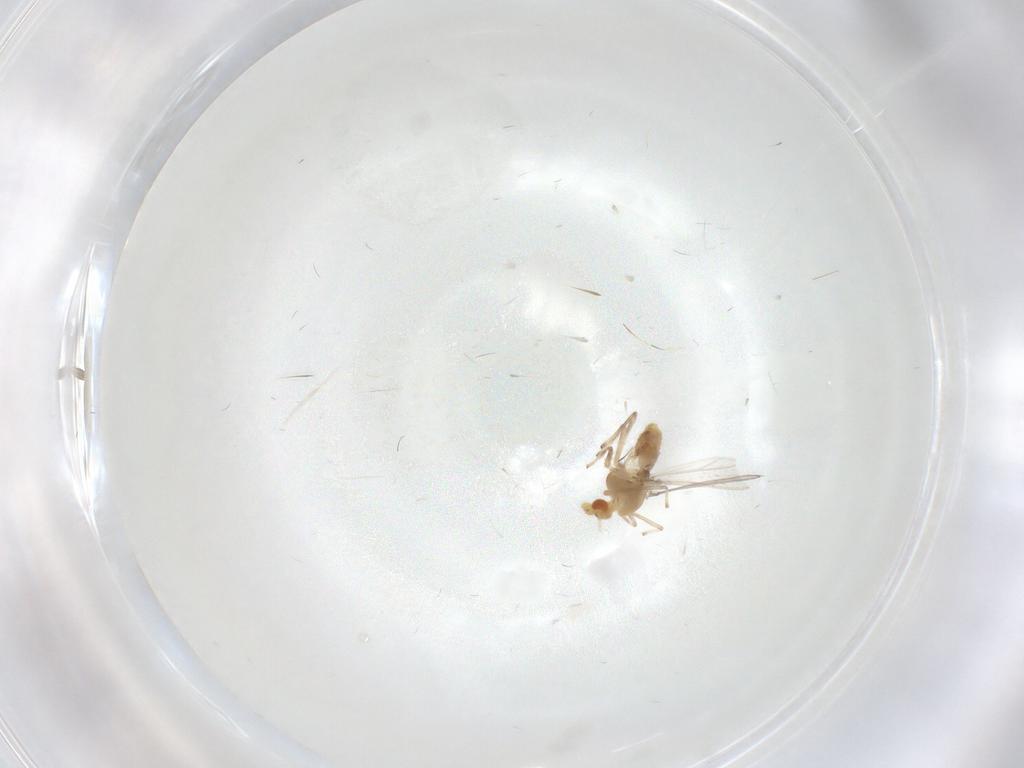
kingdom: Animalia
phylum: Arthropoda
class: Insecta
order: Diptera
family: Chironomidae
